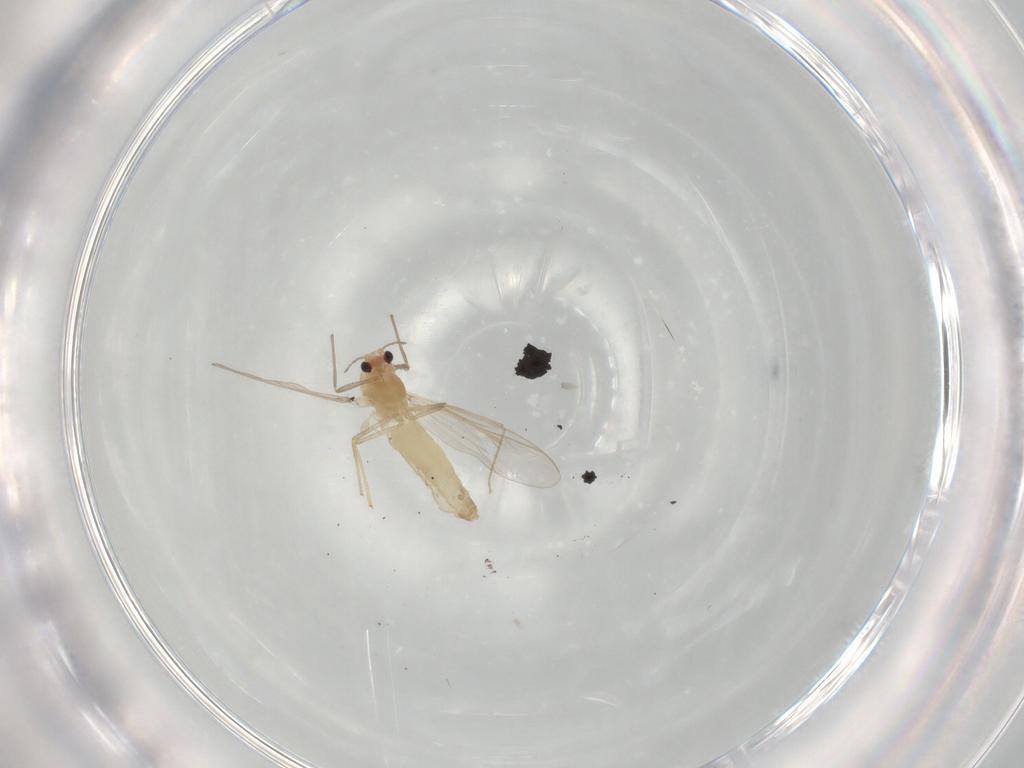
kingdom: Animalia
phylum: Arthropoda
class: Insecta
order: Diptera
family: Chironomidae
